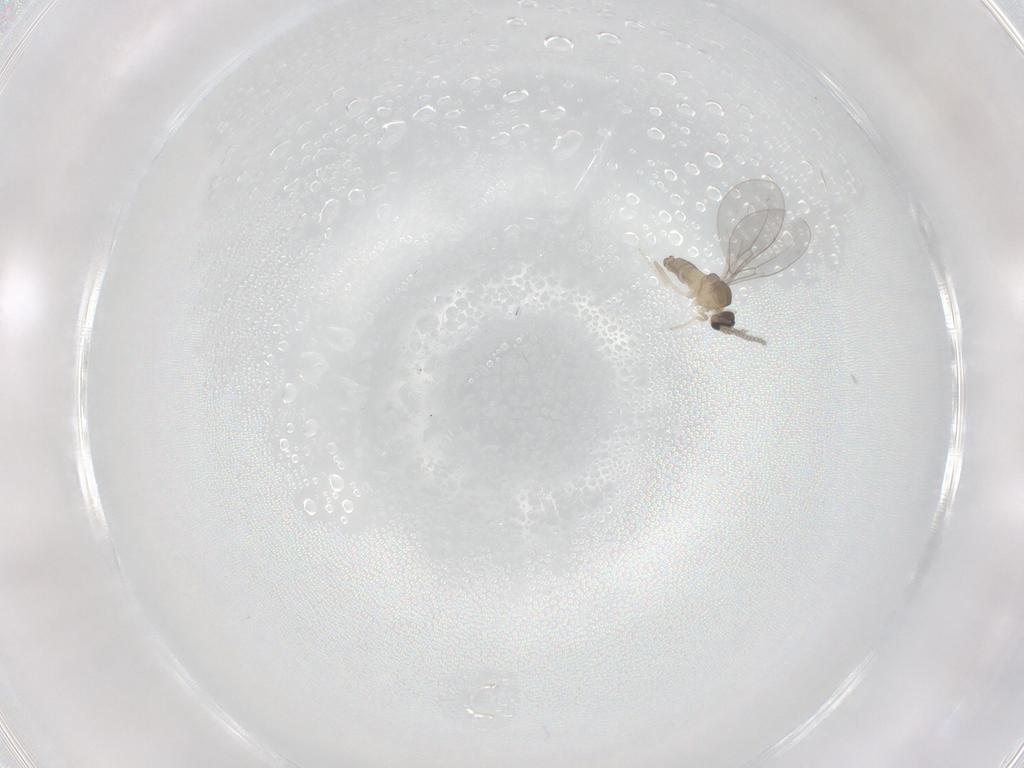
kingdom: Animalia
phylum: Arthropoda
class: Insecta
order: Diptera
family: Cecidomyiidae
